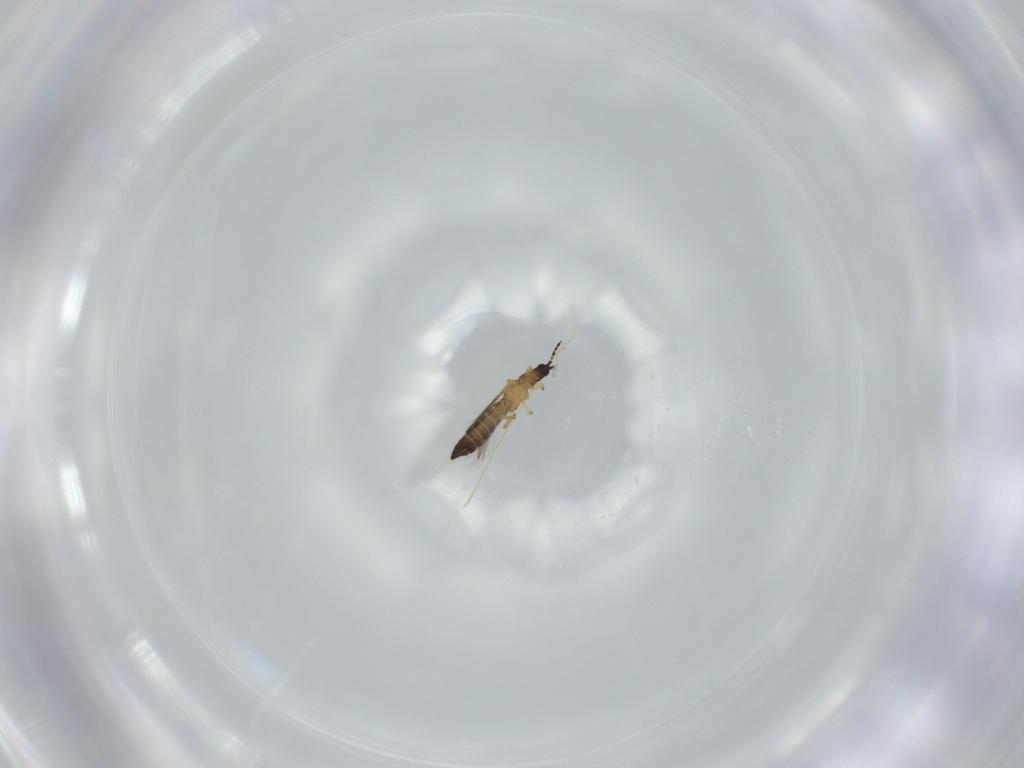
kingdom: Animalia
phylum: Arthropoda
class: Insecta
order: Thysanoptera
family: Thripidae
